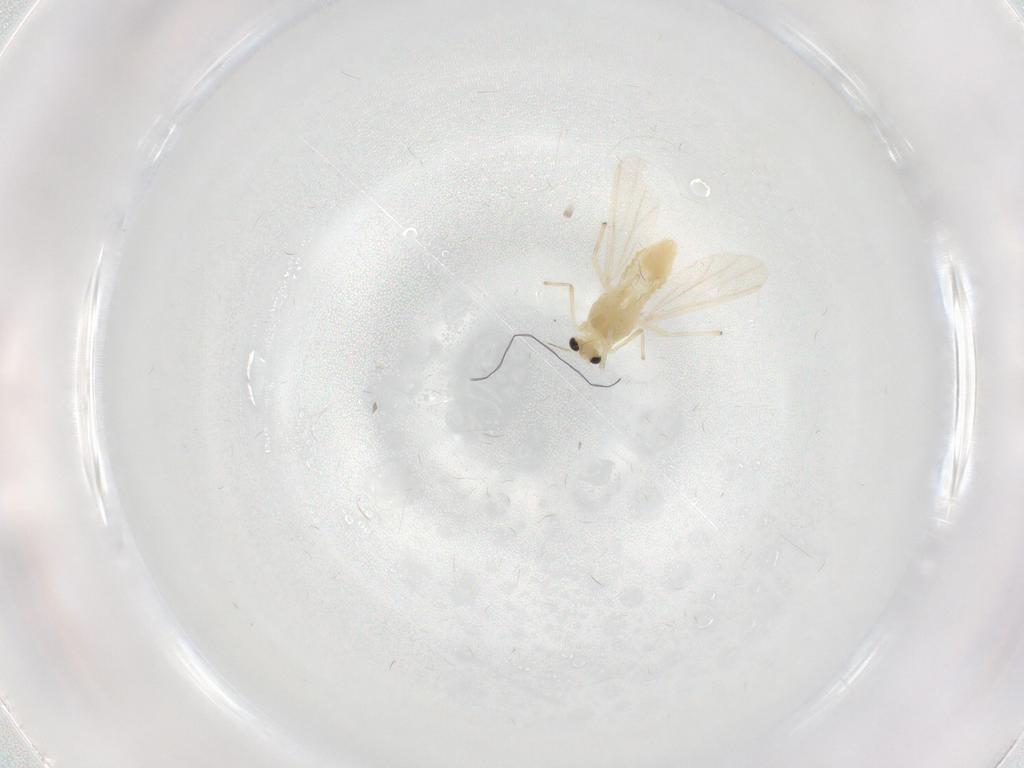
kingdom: Animalia
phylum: Arthropoda
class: Insecta
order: Diptera
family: Chironomidae
